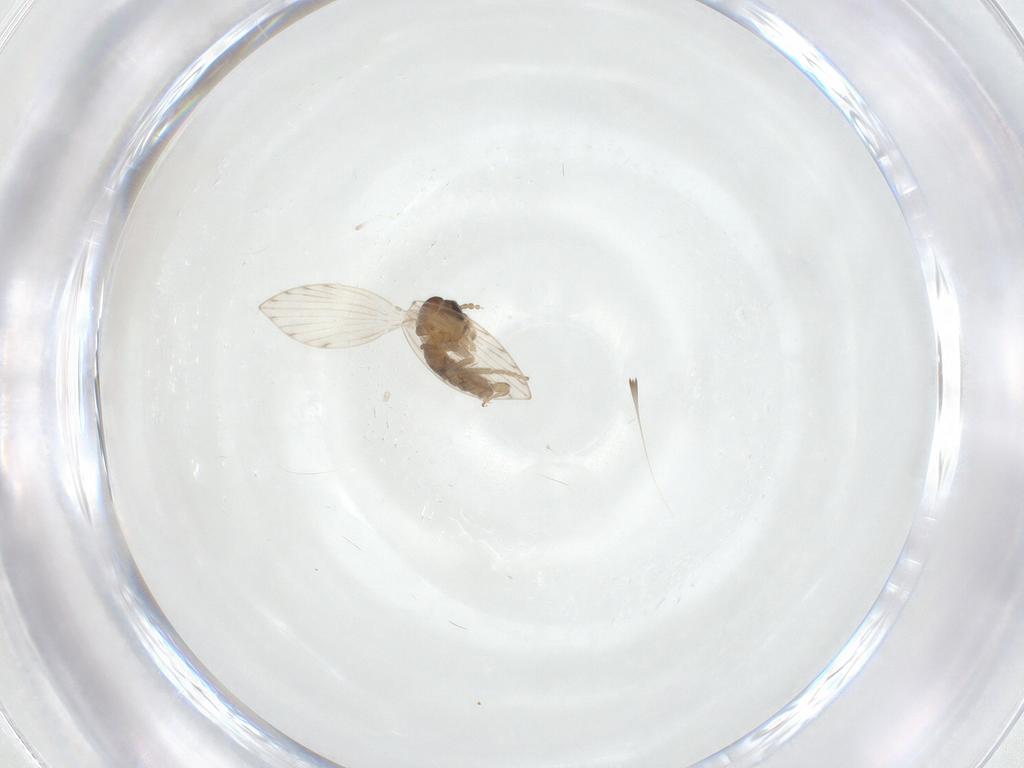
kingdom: Animalia
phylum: Arthropoda
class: Insecta
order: Diptera
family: Psychodidae
